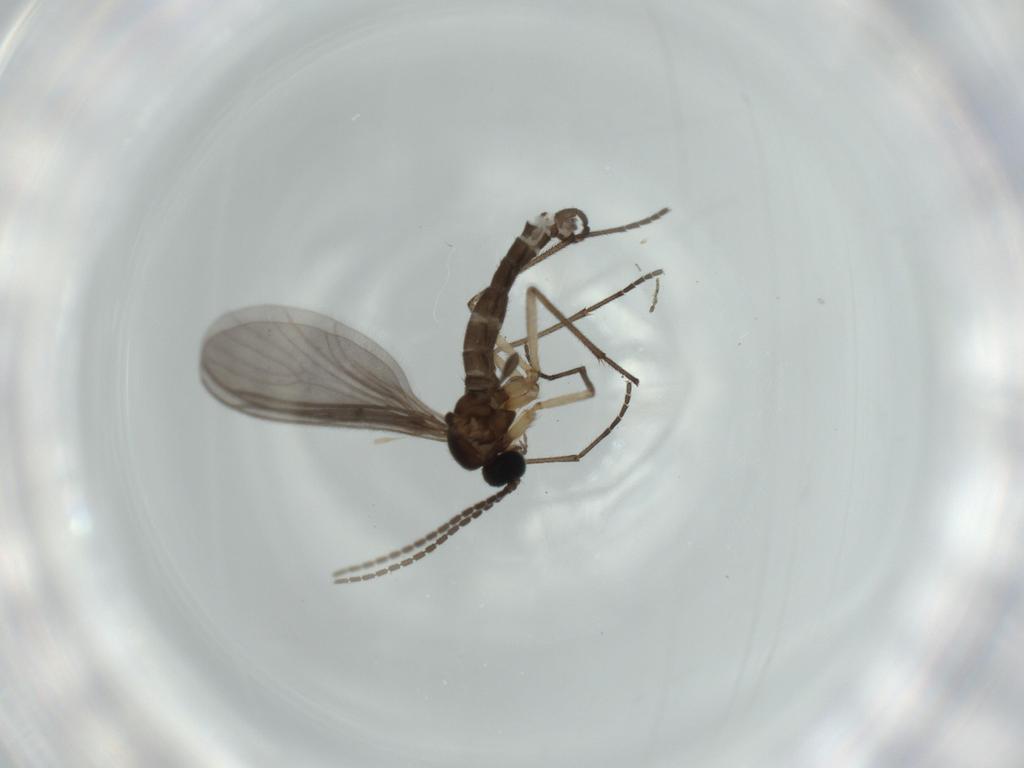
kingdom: Animalia
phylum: Arthropoda
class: Insecta
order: Diptera
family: Sciaridae
